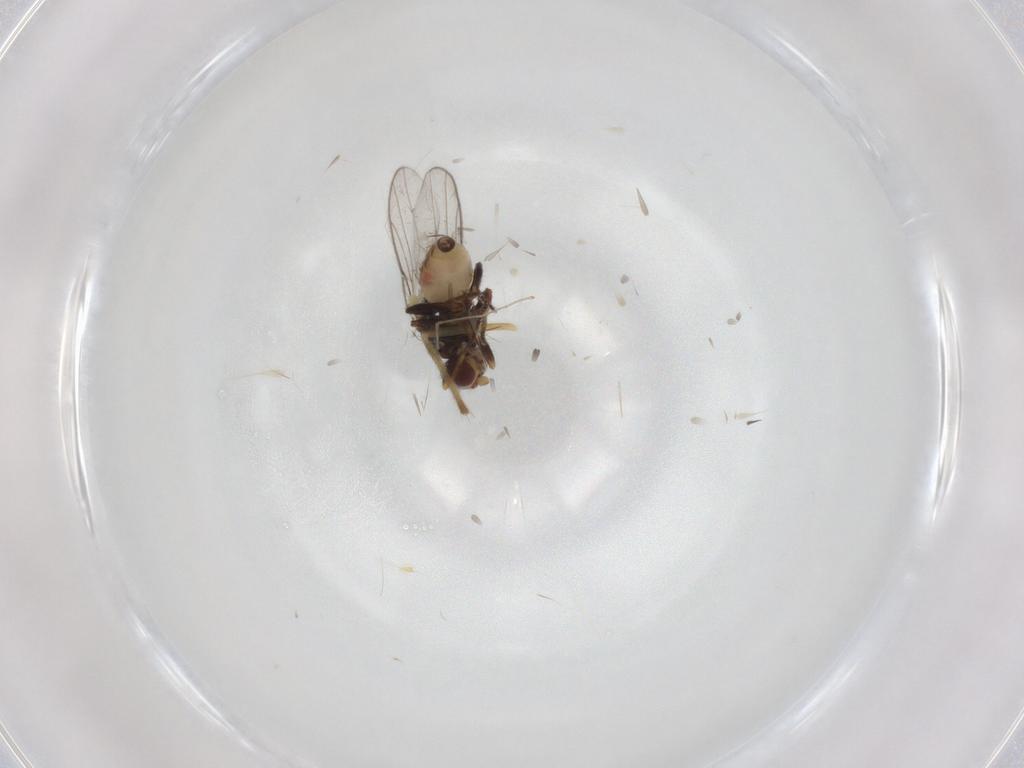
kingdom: Animalia
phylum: Arthropoda
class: Insecta
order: Diptera
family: Chloropidae
